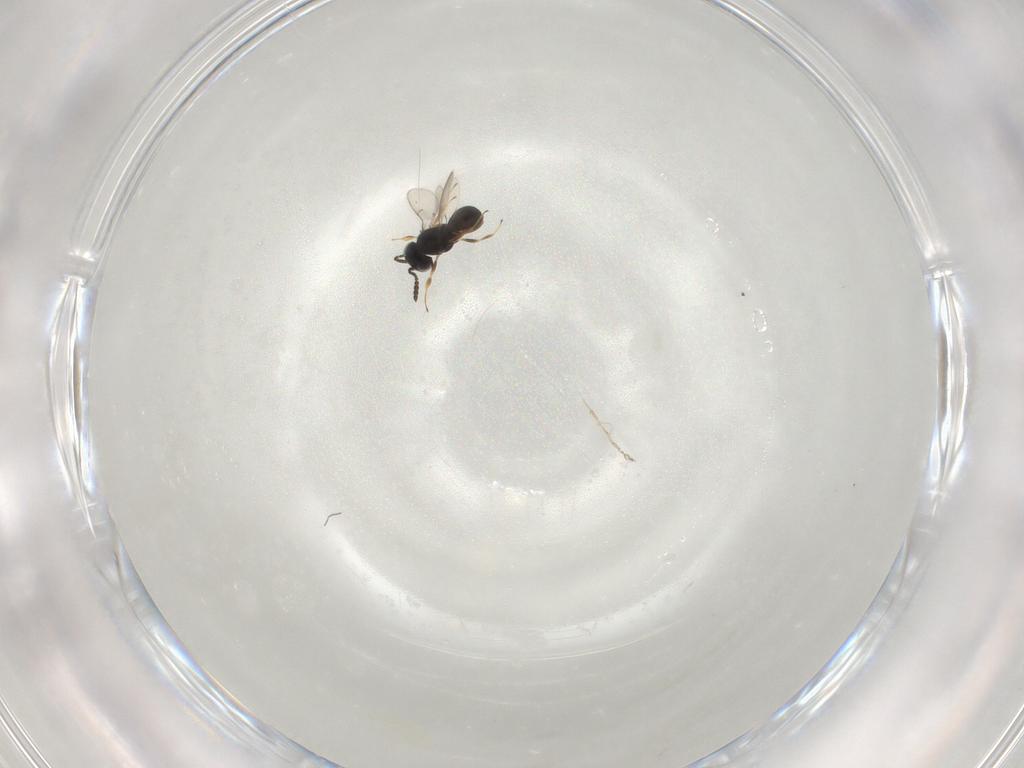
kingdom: Animalia
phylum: Arthropoda
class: Insecta
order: Hymenoptera
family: Scelionidae
